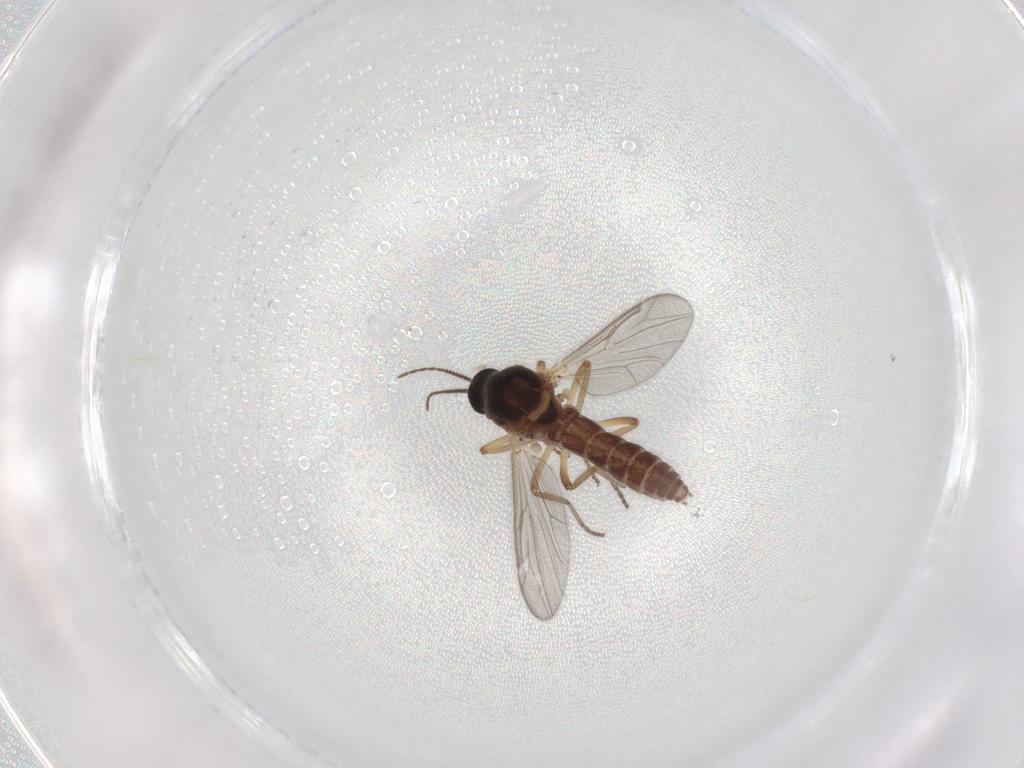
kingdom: Animalia
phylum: Arthropoda
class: Insecta
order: Diptera
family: Ceratopogonidae
